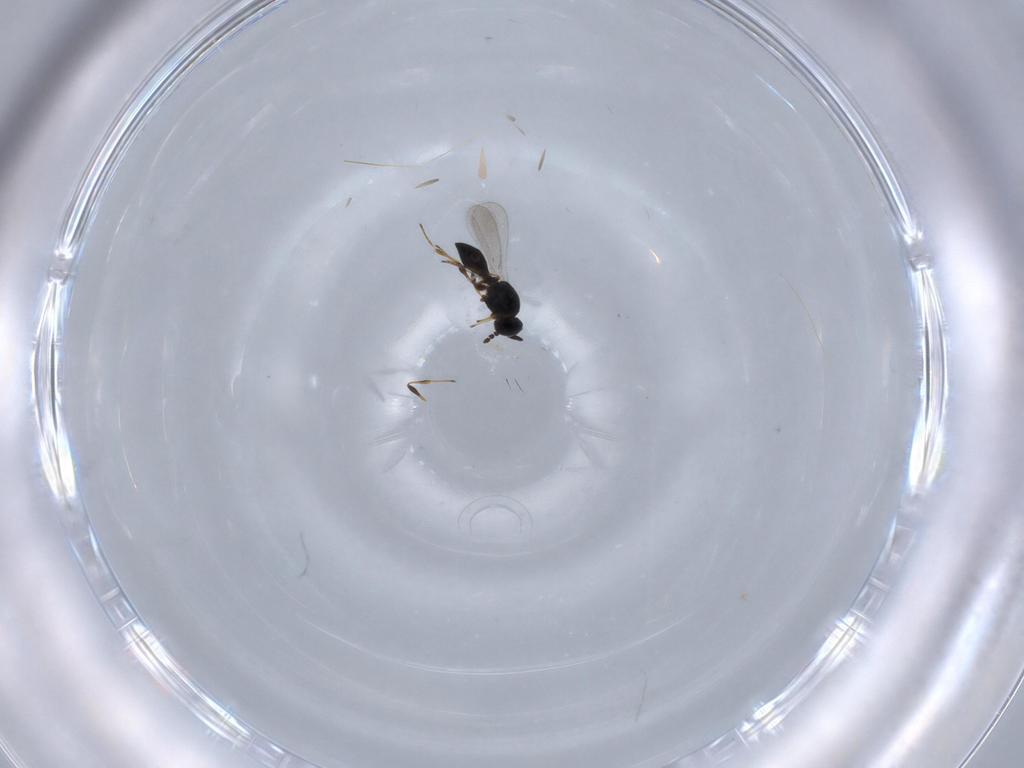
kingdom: Animalia
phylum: Arthropoda
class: Insecta
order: Hymenoptera
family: Platygastridae
